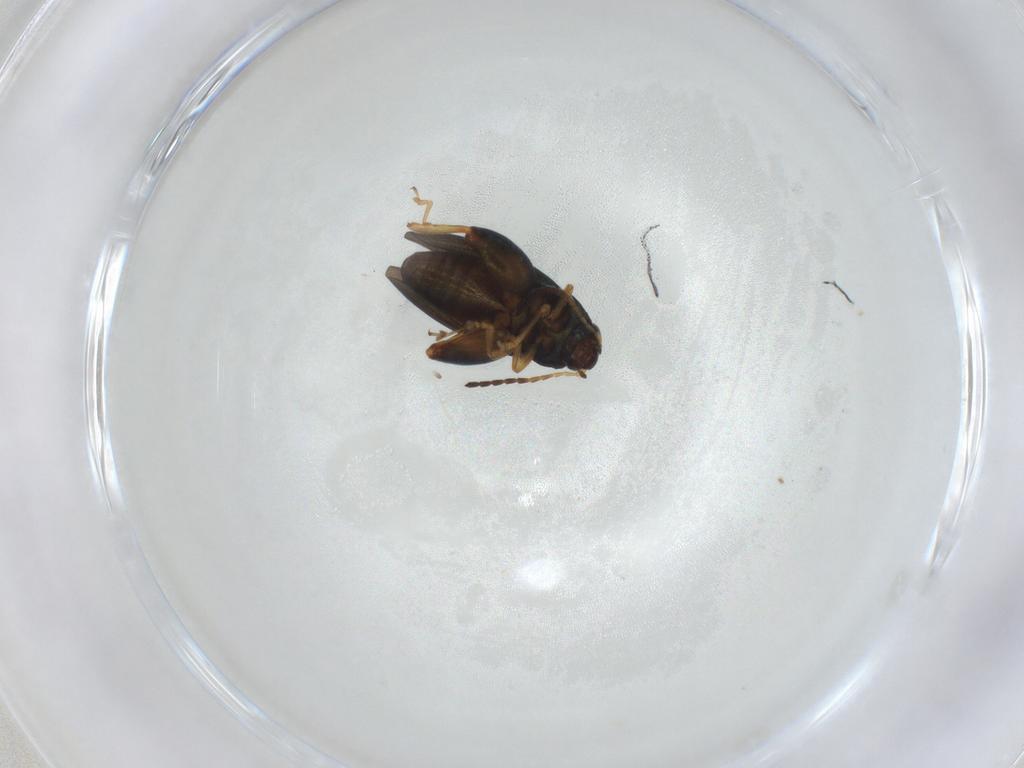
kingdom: Animalia
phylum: Arthropoda
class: Insecta
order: Coleoptera
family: Chrysomelidae
